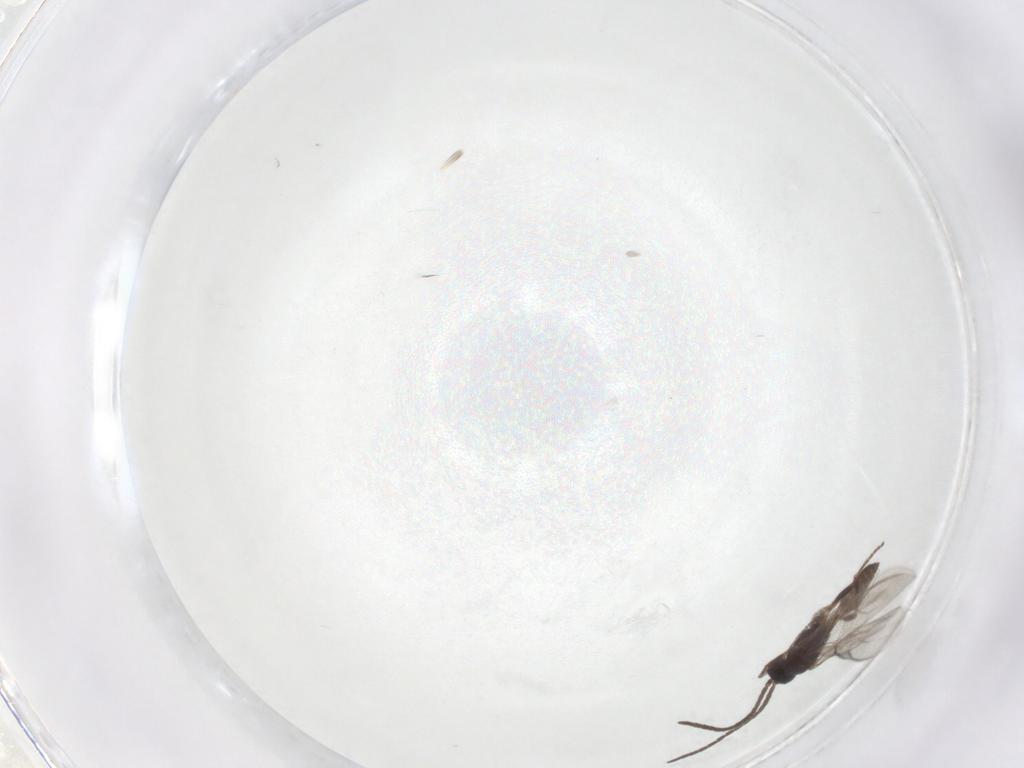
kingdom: Animalia
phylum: Arthropoda
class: Insecta
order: Hymenoptera
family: Braconidae
